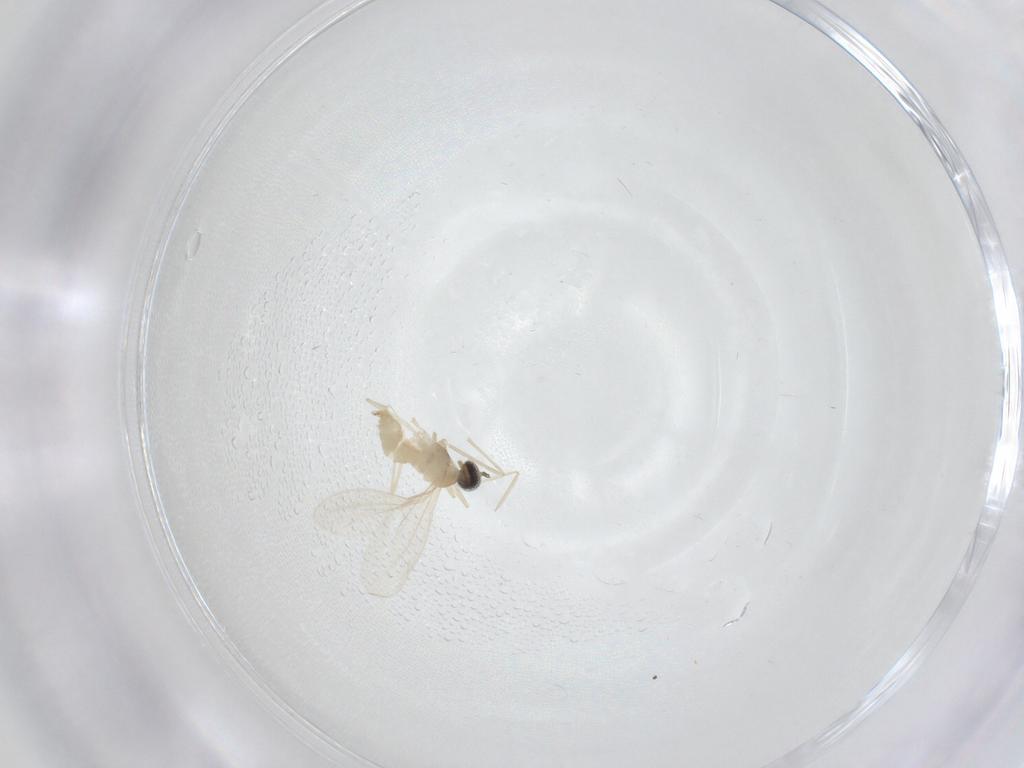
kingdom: Animalia
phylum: Arthropoda
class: Insecta
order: Diptera
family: Cecidomyiidae
